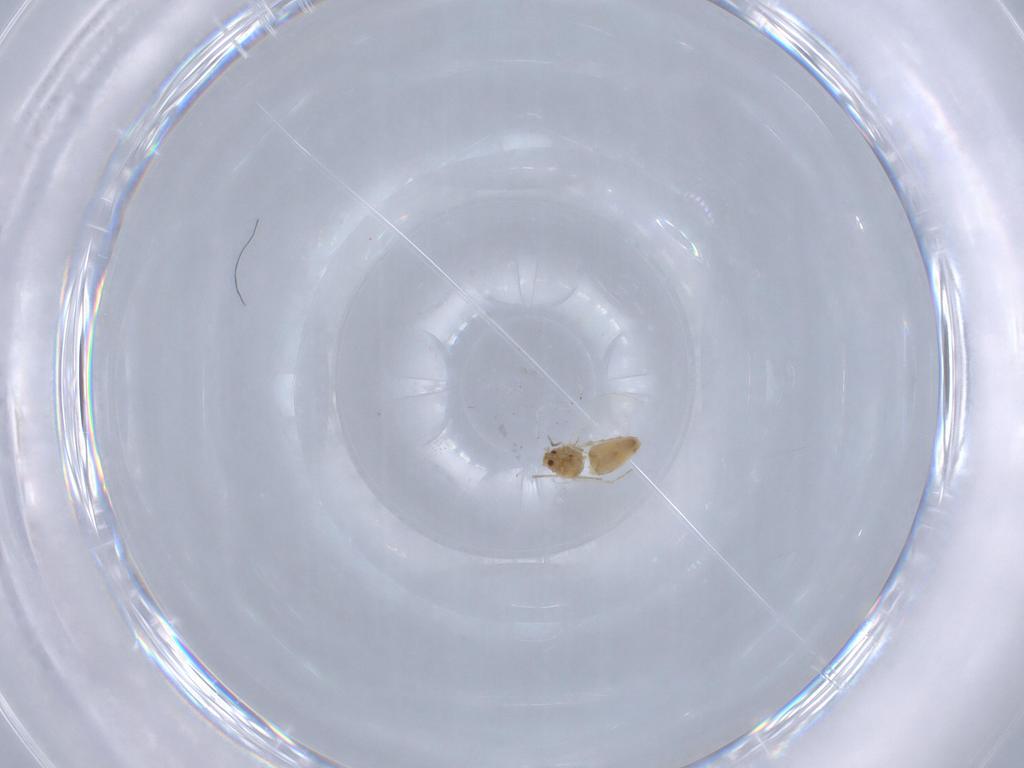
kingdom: Animalia
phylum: Arthropoda
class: Insecta
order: Hemiptera
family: Aleyrodidae
